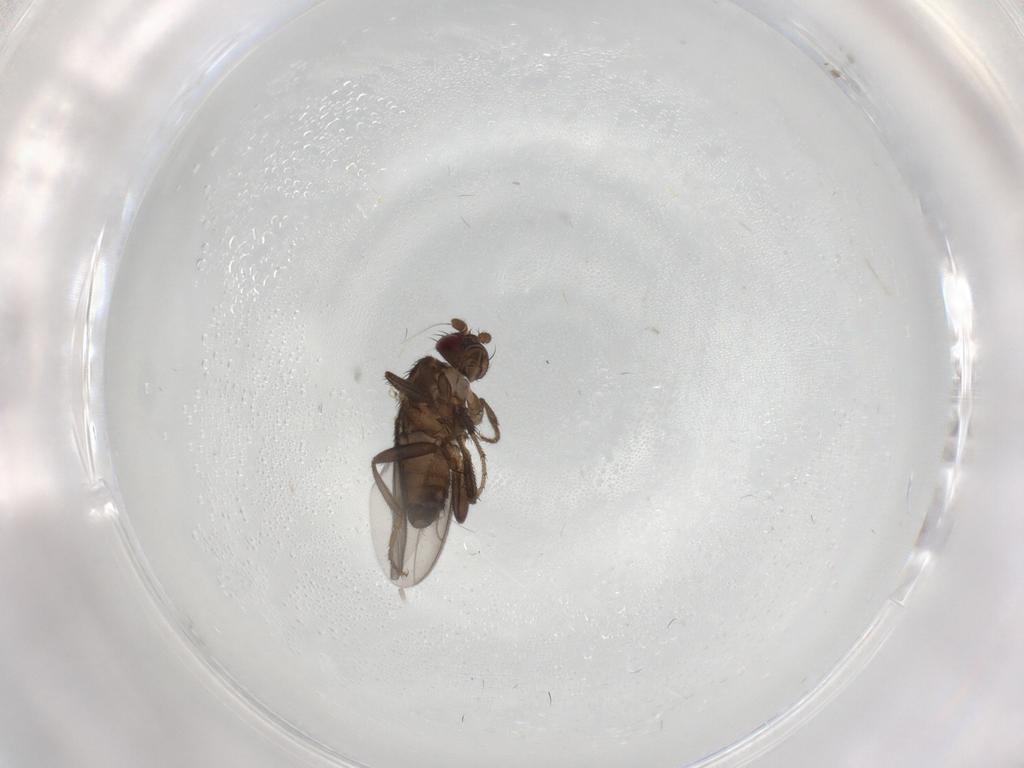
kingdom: Animalia
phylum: Arthropoda
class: Insecta
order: Diptera
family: Sphaeroceridae
